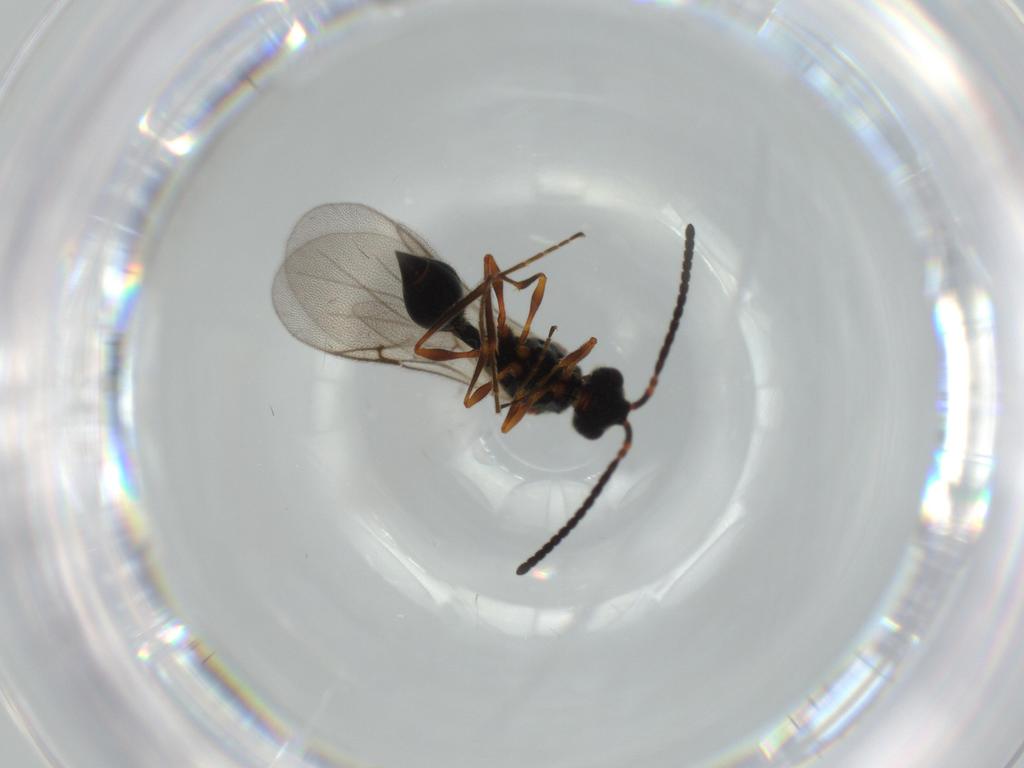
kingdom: Animalia
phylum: Arthropoda
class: Insecta
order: Hymenoptera
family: Diapriidae
